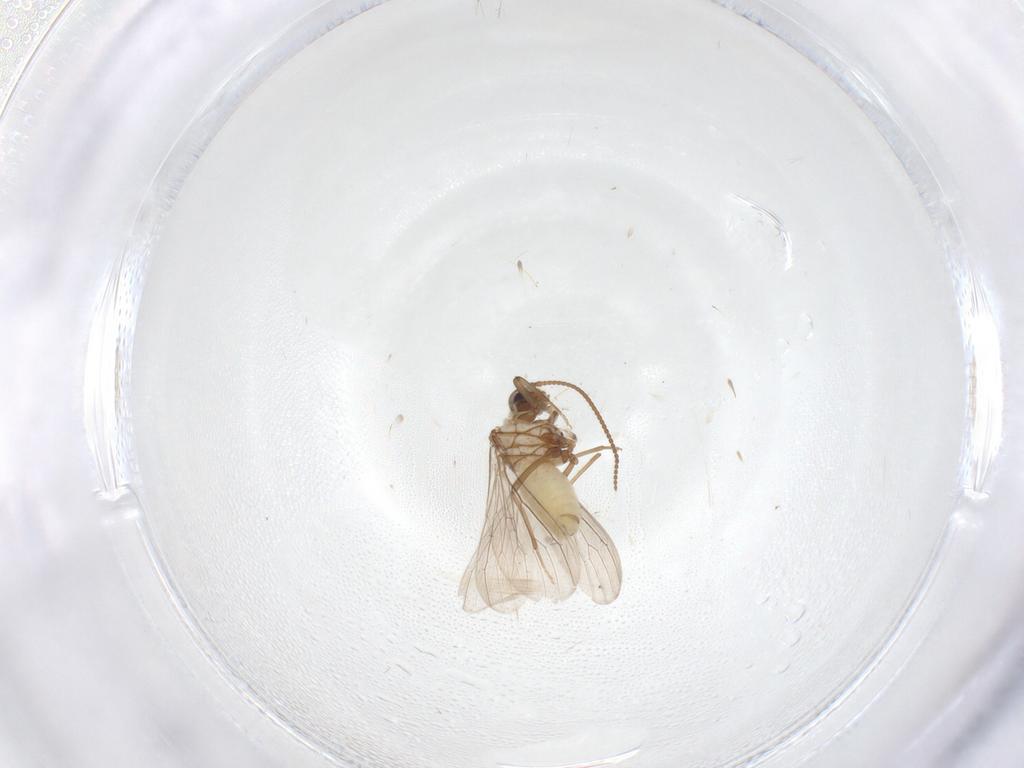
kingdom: Animalia
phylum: Arthropoda
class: Insecta
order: Neuroptera
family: Coniopterygidae
